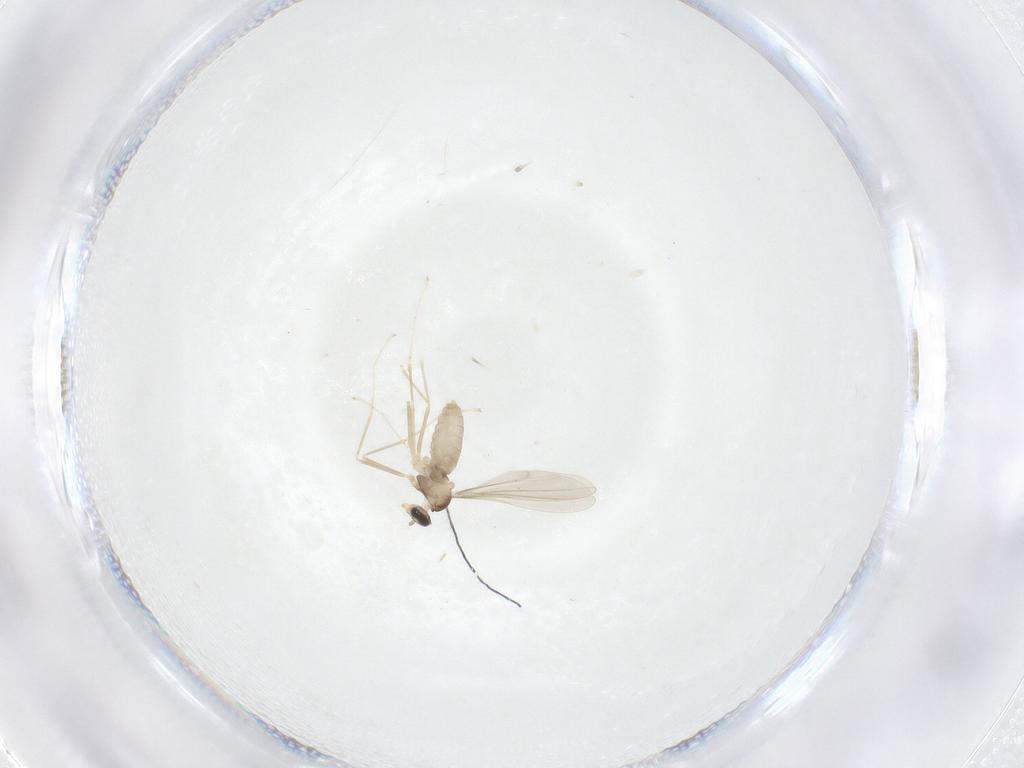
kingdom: Animalia
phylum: Arthropoda
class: Insecta
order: Diptera
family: Cecidomyiidae
